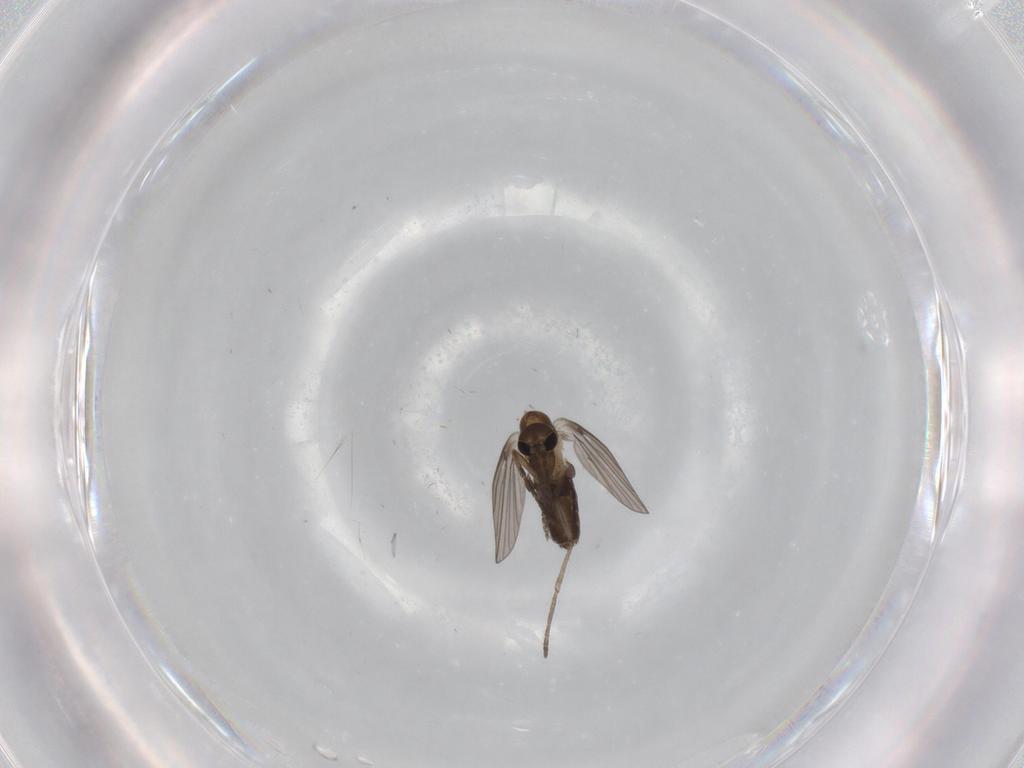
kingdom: Animalia
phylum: Arthropoda
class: Insecta
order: Diptera
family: Psychodidae
